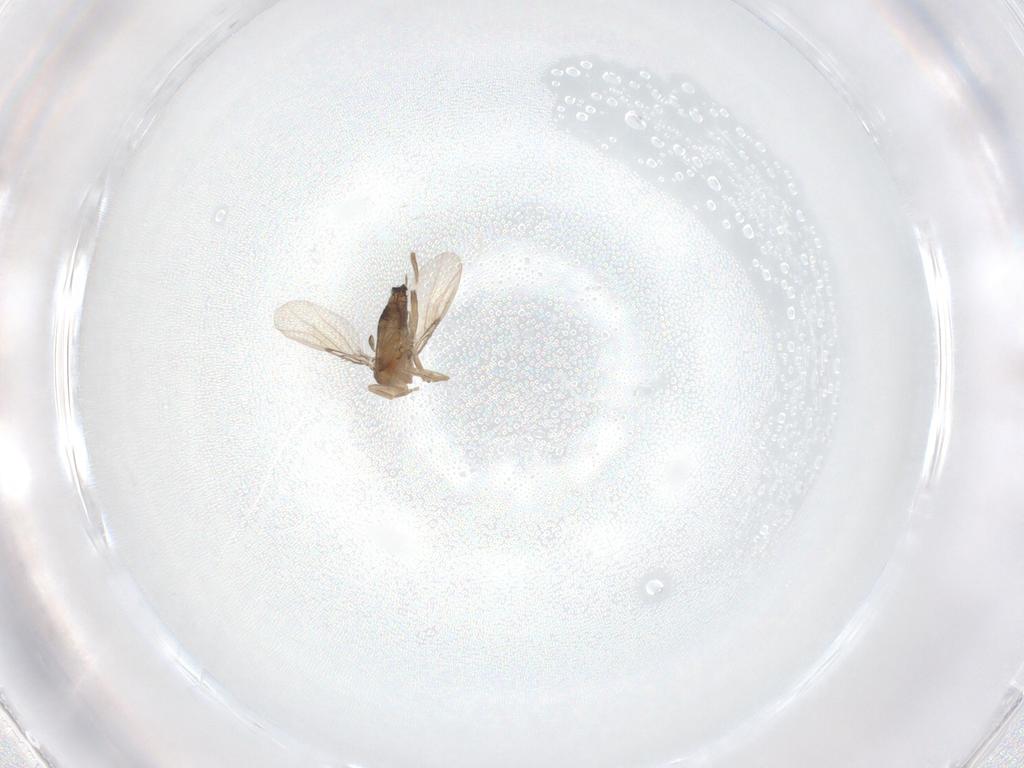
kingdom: Animalia
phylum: Arthropoda
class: Insecta
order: Diptera
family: Phoridae
